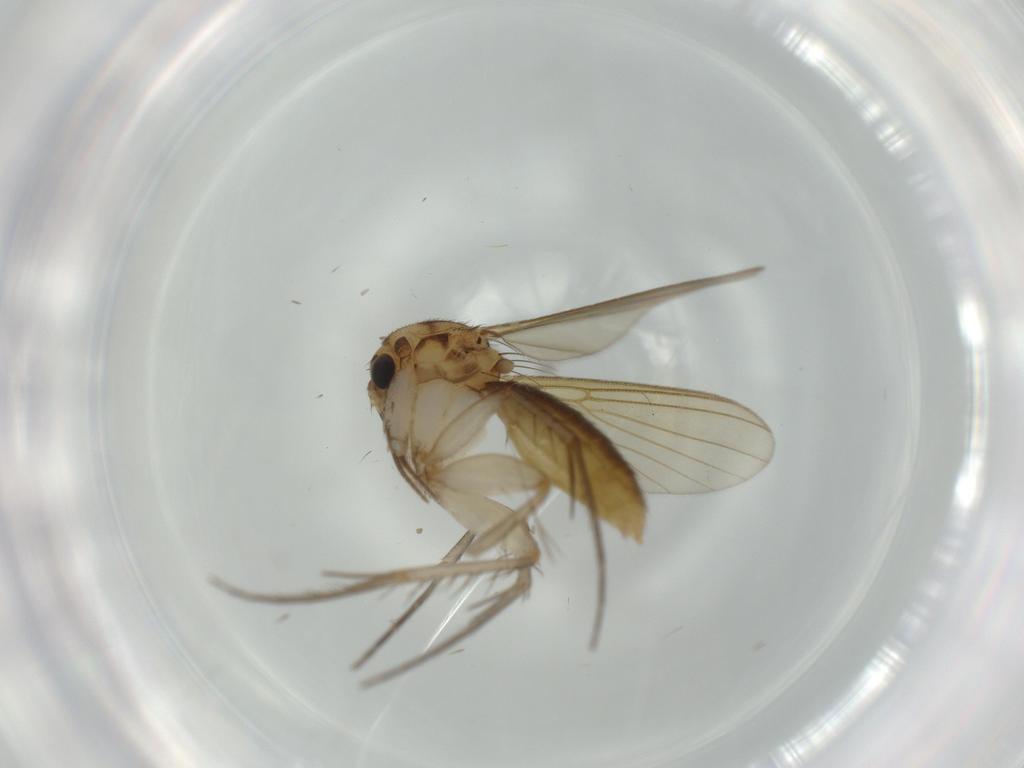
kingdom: Animalia
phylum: Arthropoda
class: Insecta
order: Diptera
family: Mycetophilidae
